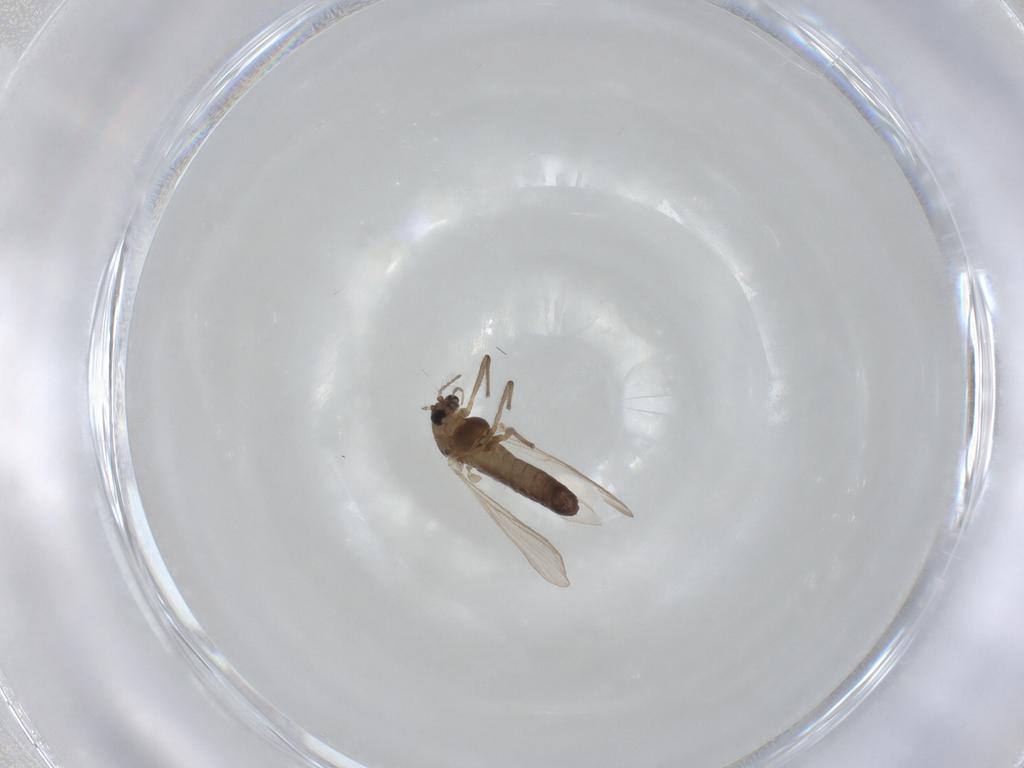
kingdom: Animalia
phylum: Arthropoda
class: Insecta
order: Diptera
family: Chironomidae
